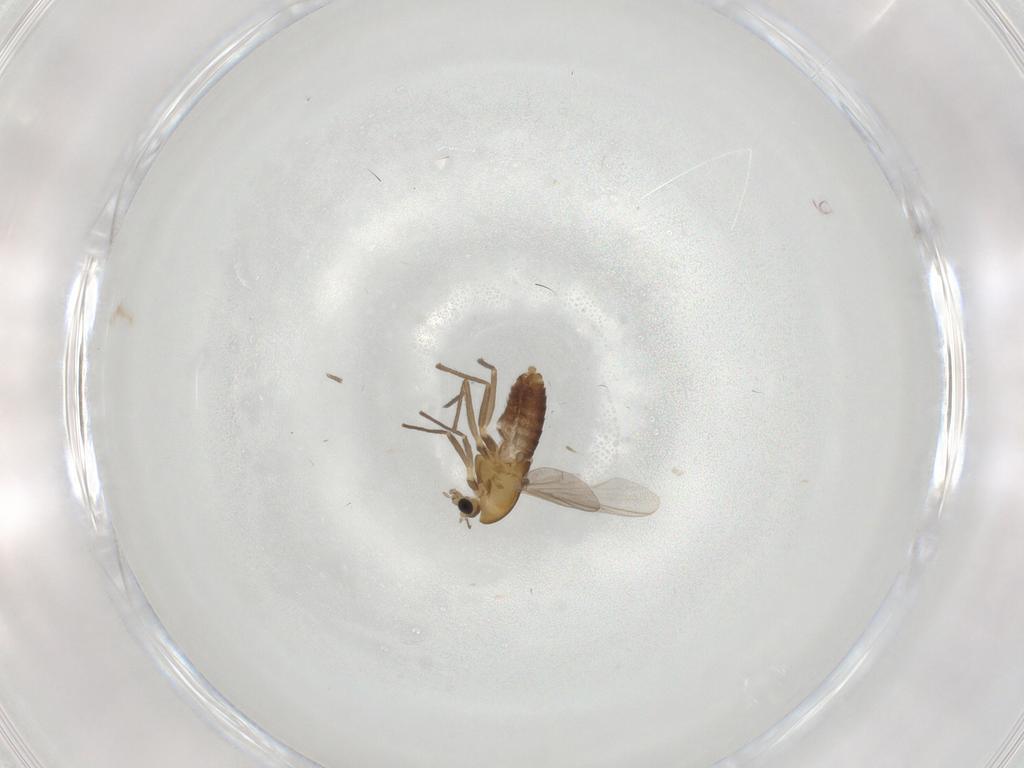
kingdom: Animalia
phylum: Arthropoda
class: Insecta
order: Diptera
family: Chironomidae
